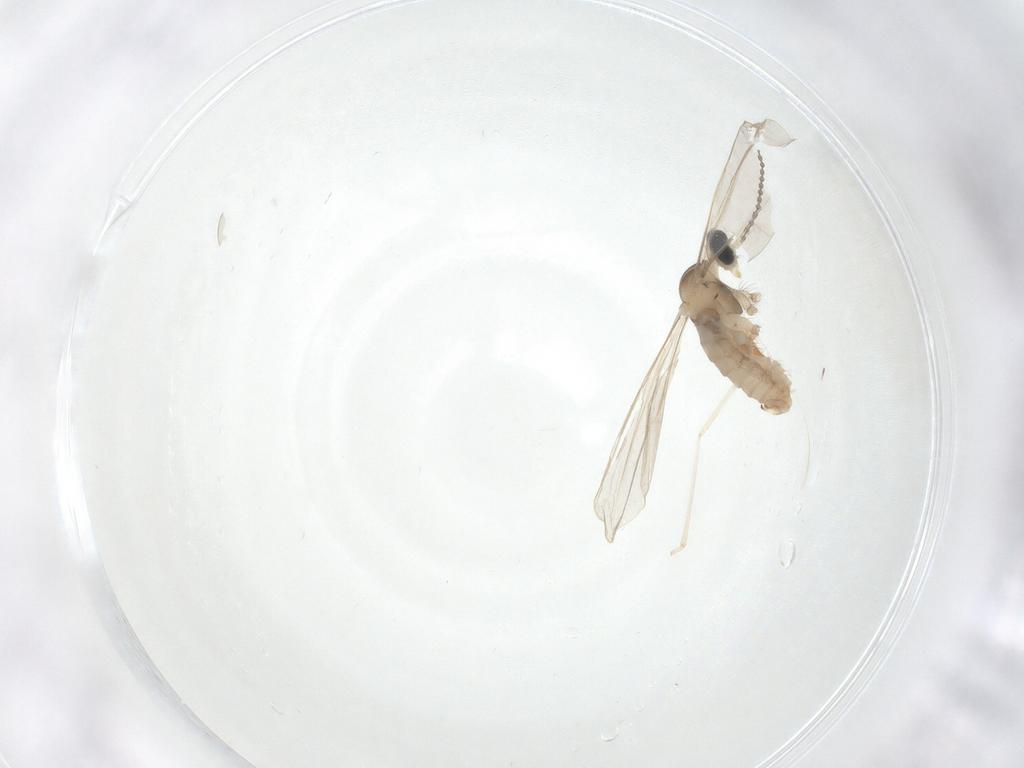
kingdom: Animalia
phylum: Arthropoda
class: Insecta
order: Diptera
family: Cecidomyiidae
